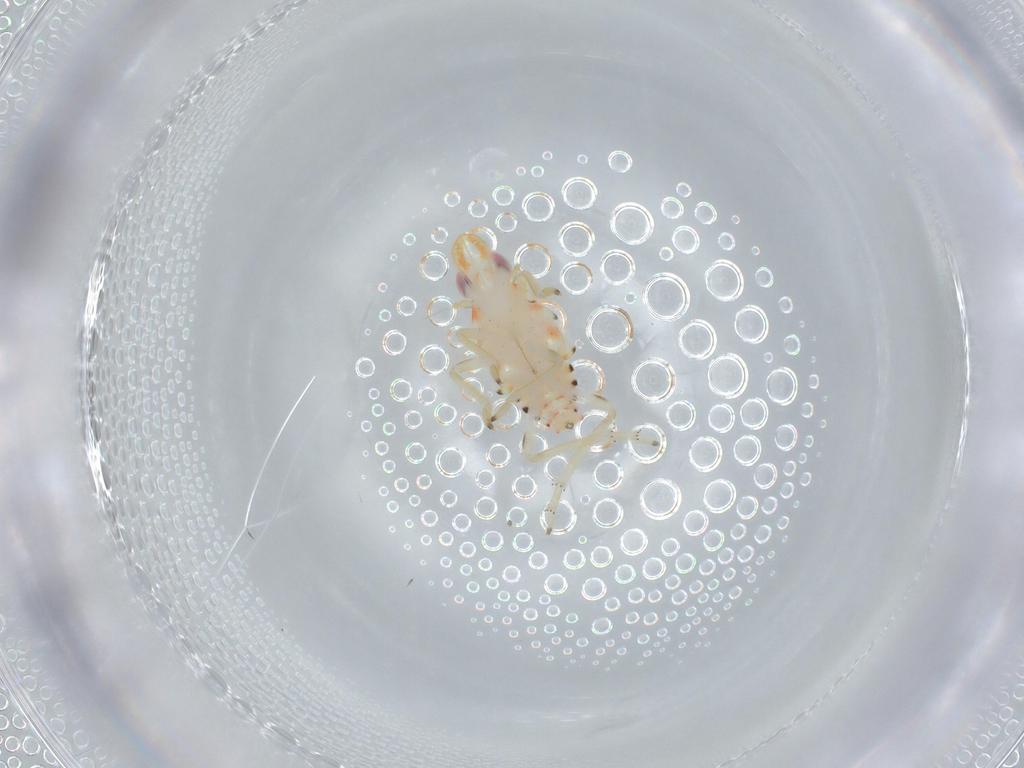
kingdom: Animalia
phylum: Arthropoda
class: Insecta
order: Hemiptera
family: Tropiduchidae
